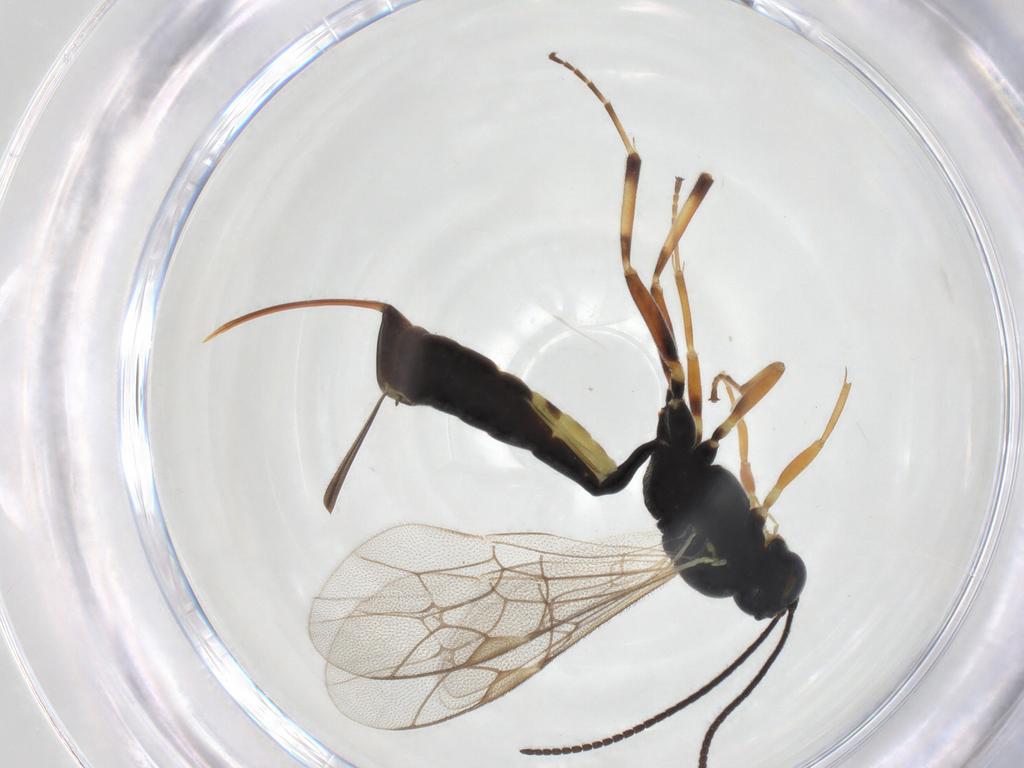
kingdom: Animalia
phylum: Arthropoda
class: Insecta
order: Hymenoptera
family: Ichneumonidae
